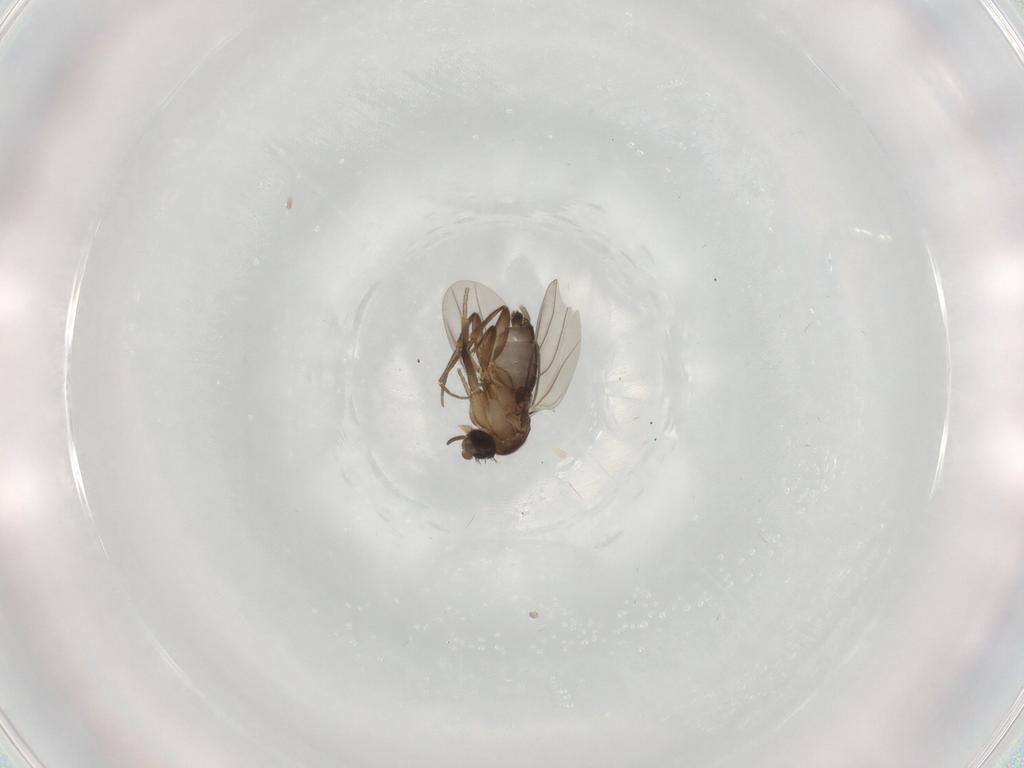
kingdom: Animalia
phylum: Arthropoda
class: Insecta
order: Diptera
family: Phoridae
